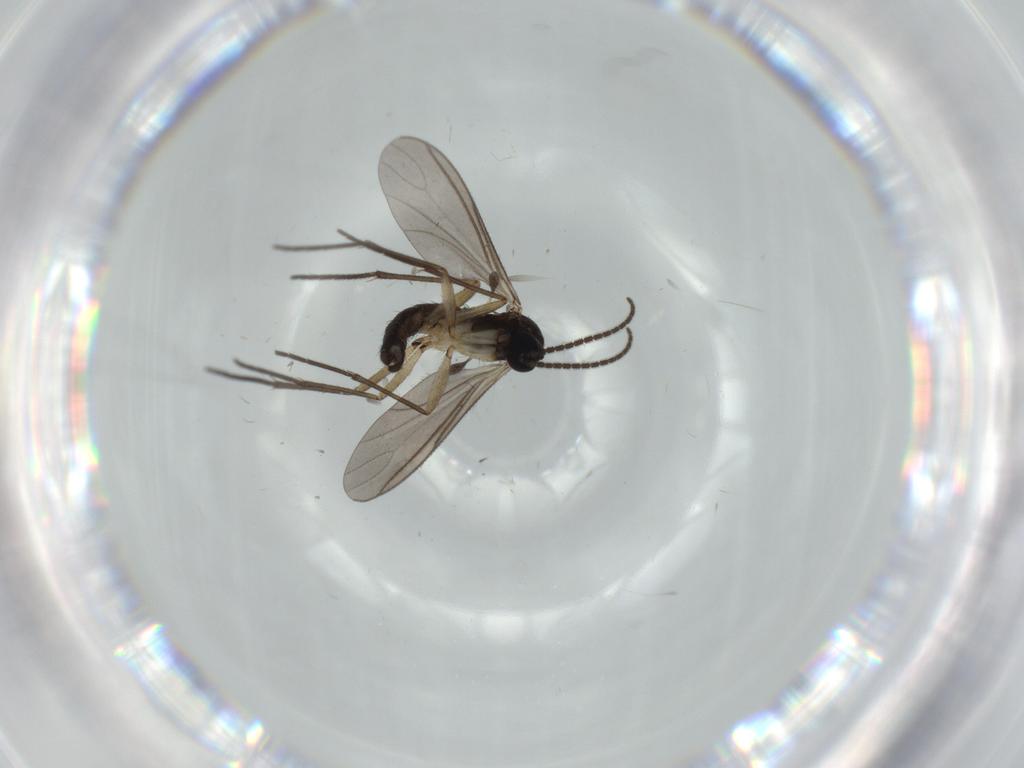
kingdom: Animalia
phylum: Arthropoda
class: Insecta
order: Diptera
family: Sciaridae
